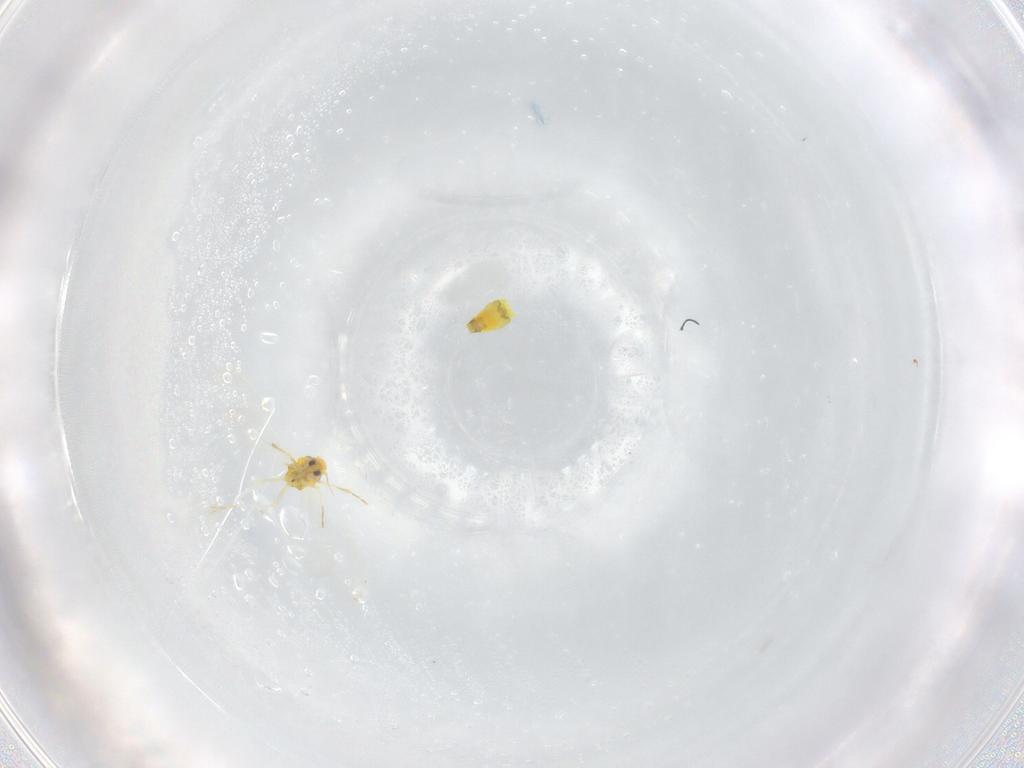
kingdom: Animalia
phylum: Arthropoda
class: Insecta
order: Hemiptera
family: Aleyrodidae
